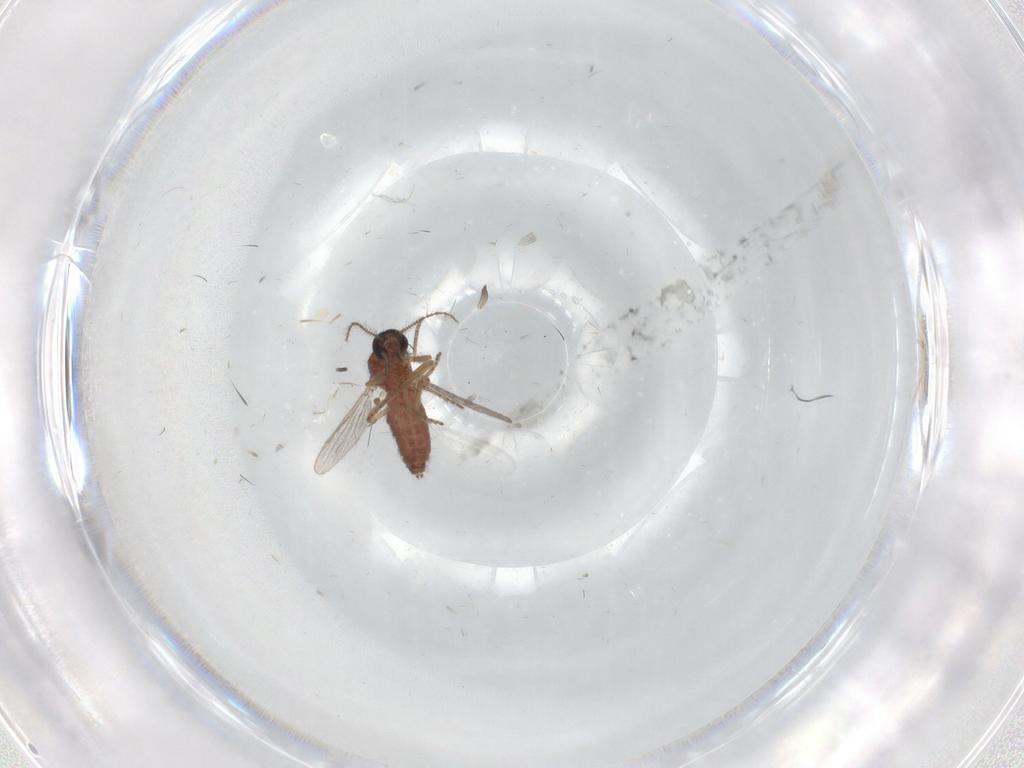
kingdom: Animalia
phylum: Arthropoda
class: Insecta
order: Diptera
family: Ceratopogonidae
